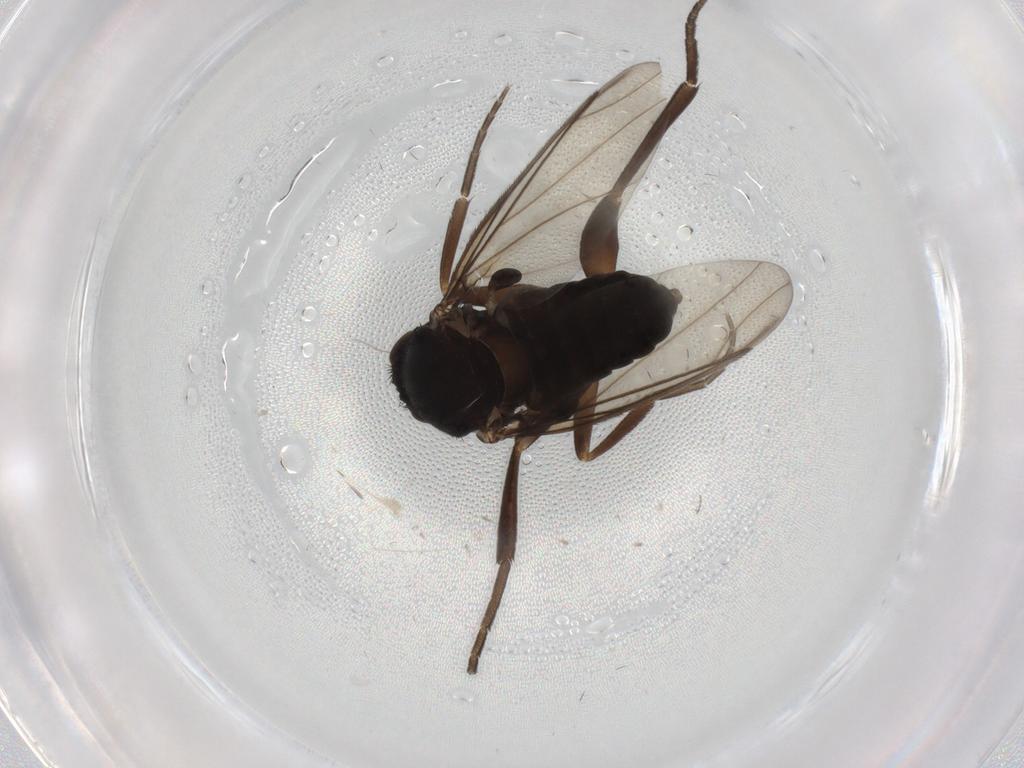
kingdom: Animalia
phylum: Arthropoda
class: Insecta
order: Diptera
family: Phoridae
